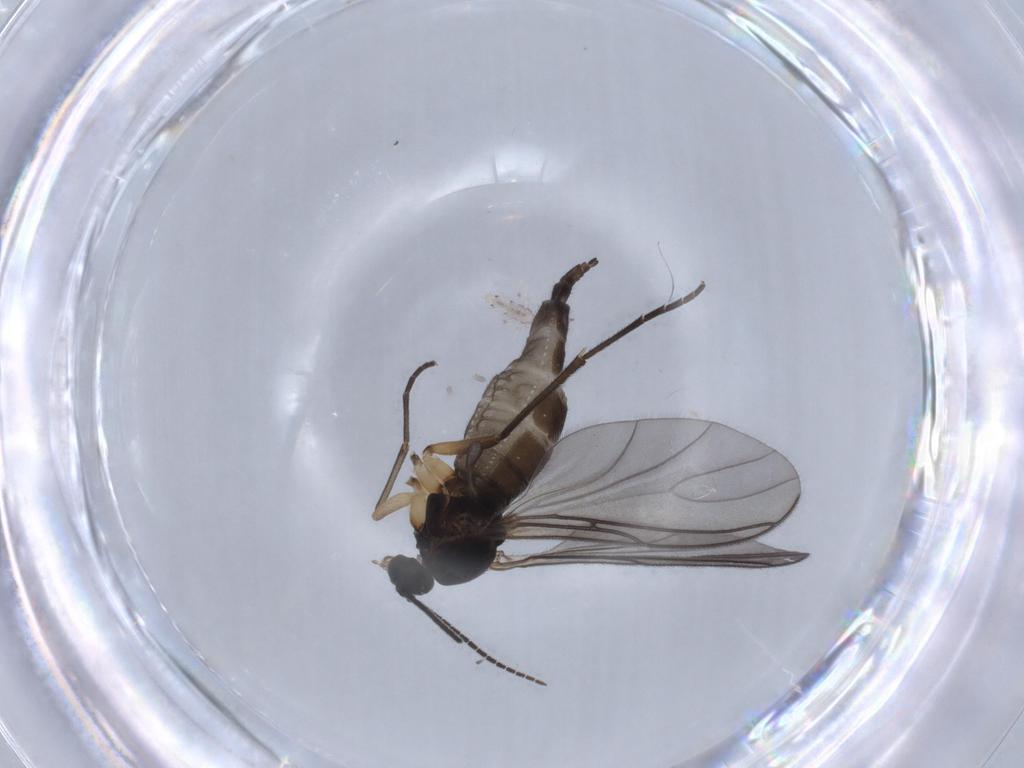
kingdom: Animalia
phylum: Arthropoda
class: Insecta
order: Diptera
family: Sciaridae
